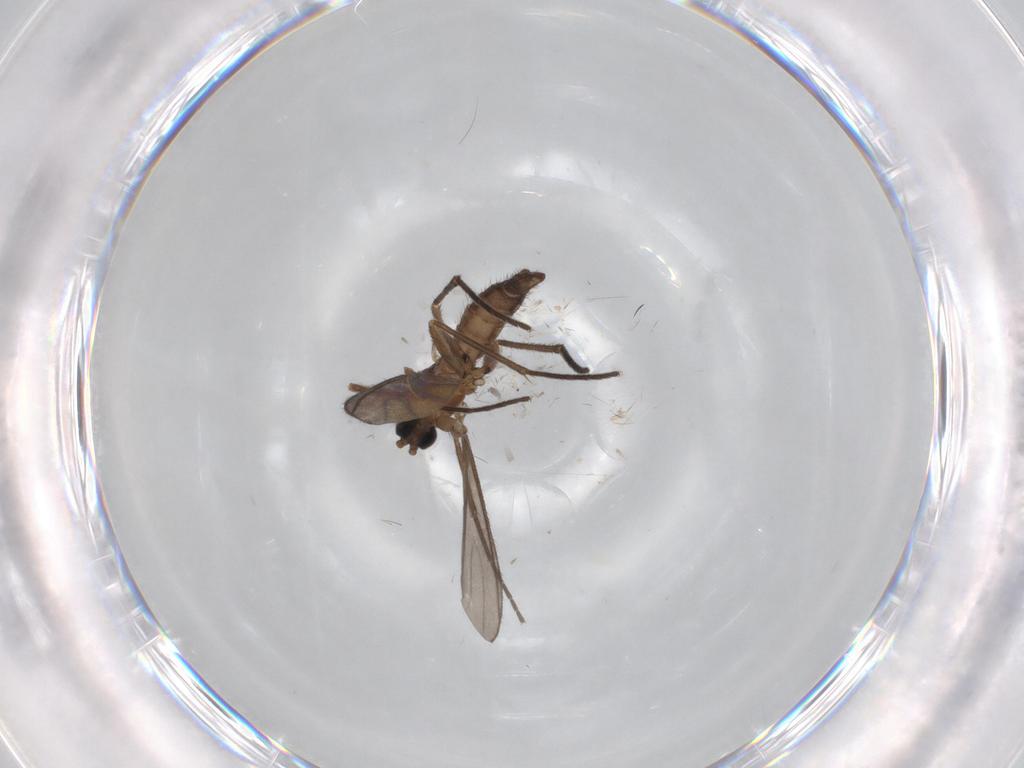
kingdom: Animalia
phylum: Arthropoda
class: Insecta
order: Diptera
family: Sciaridae
